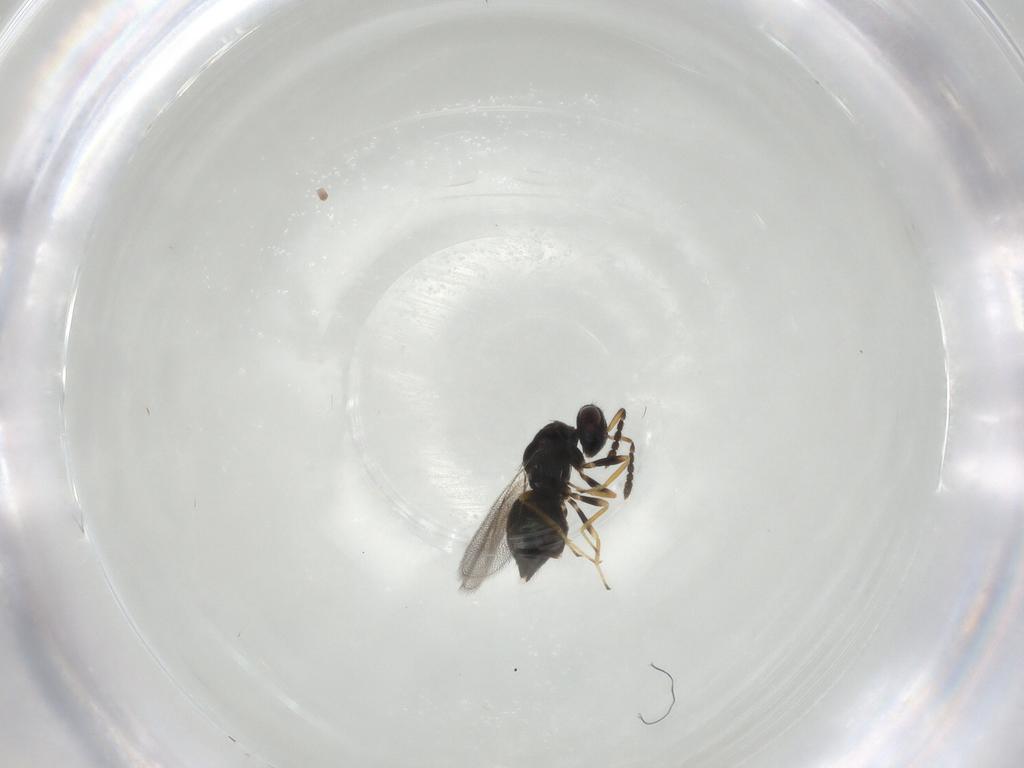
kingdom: Animalia
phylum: Arthropoda
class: Insecta
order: Hymenoptera
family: Eulophidae
